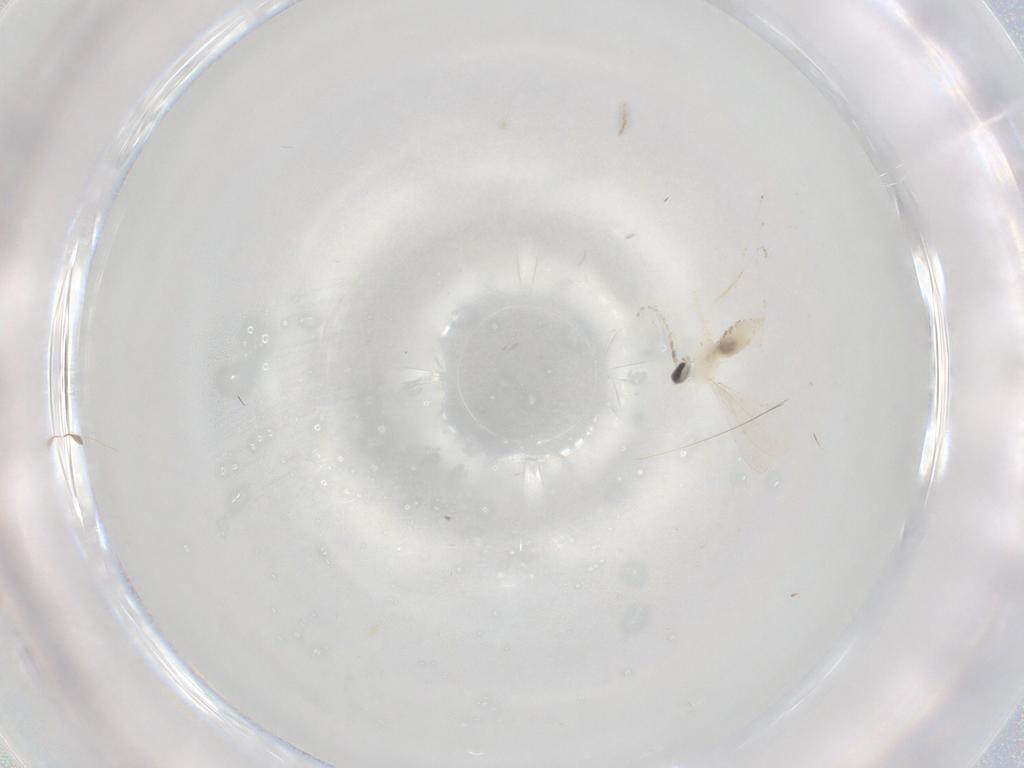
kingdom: Animalia
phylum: Arthropoda
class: Insecta
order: Diptera
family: Cecidomyiidae
